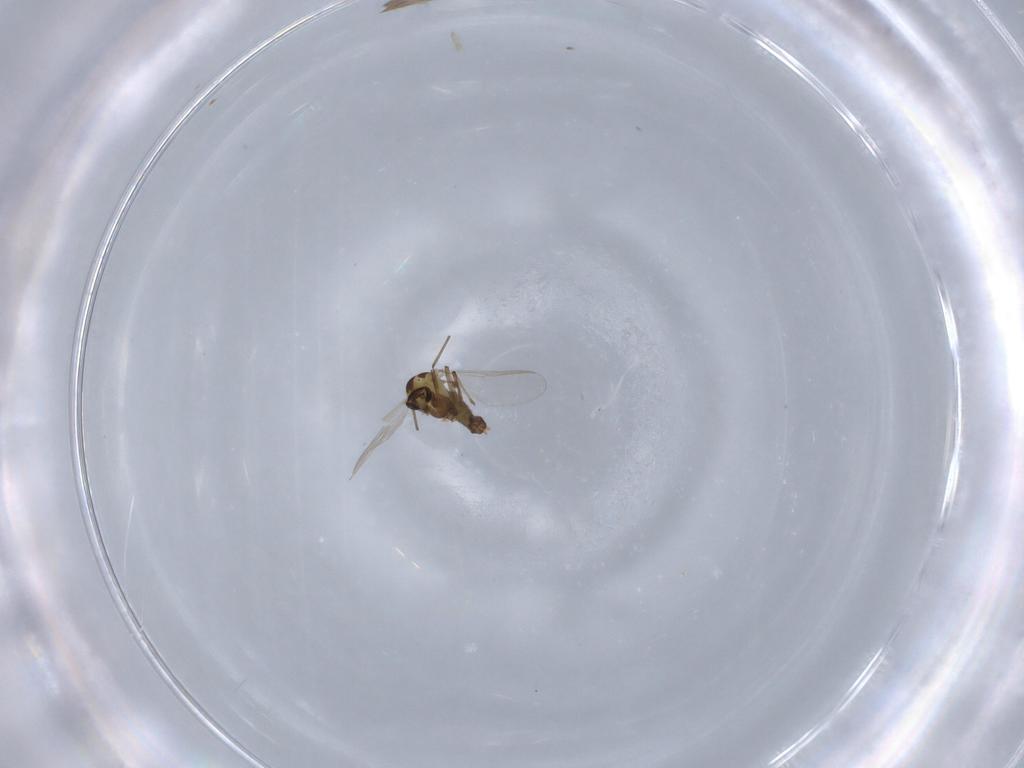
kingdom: Animalia
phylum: Arthropoda
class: Insecta
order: Diptera
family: Chironomidae
